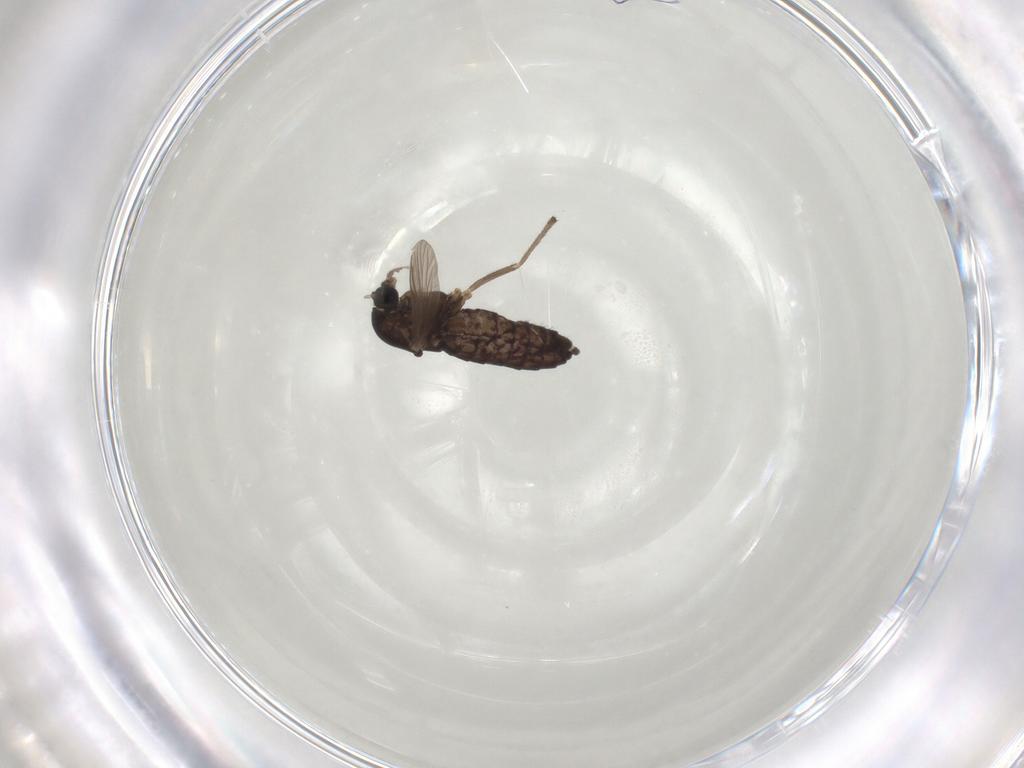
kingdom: Animalia
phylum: Arthropoda
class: Insecta
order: Diptera
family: Chironomidae
